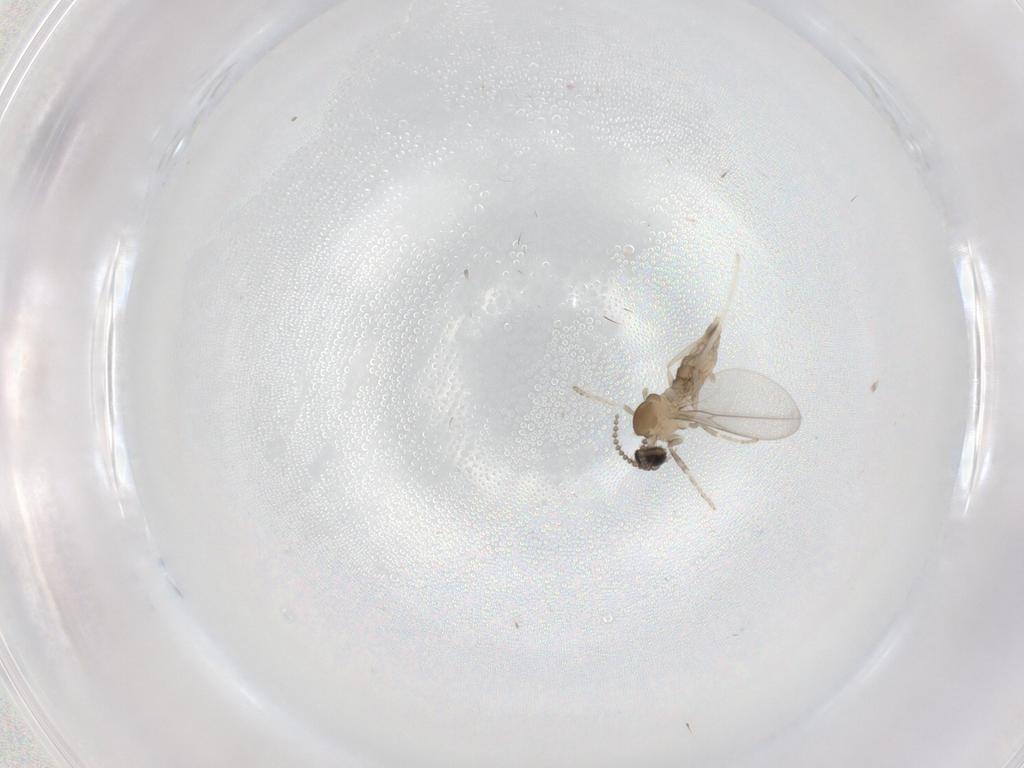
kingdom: Animalia
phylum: Arthropoda
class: Insecta
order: Diptera
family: Cecidomyiidae
